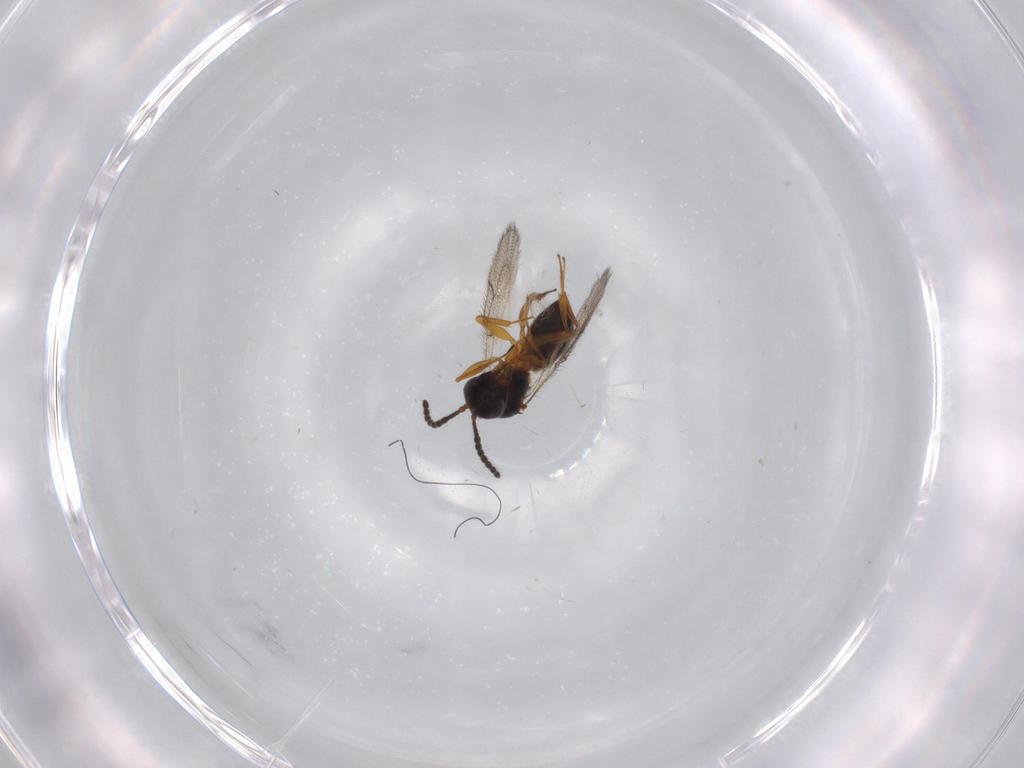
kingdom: Animalia
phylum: Arthropoda
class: Insecta
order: Hymenoptera
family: Figitidae
